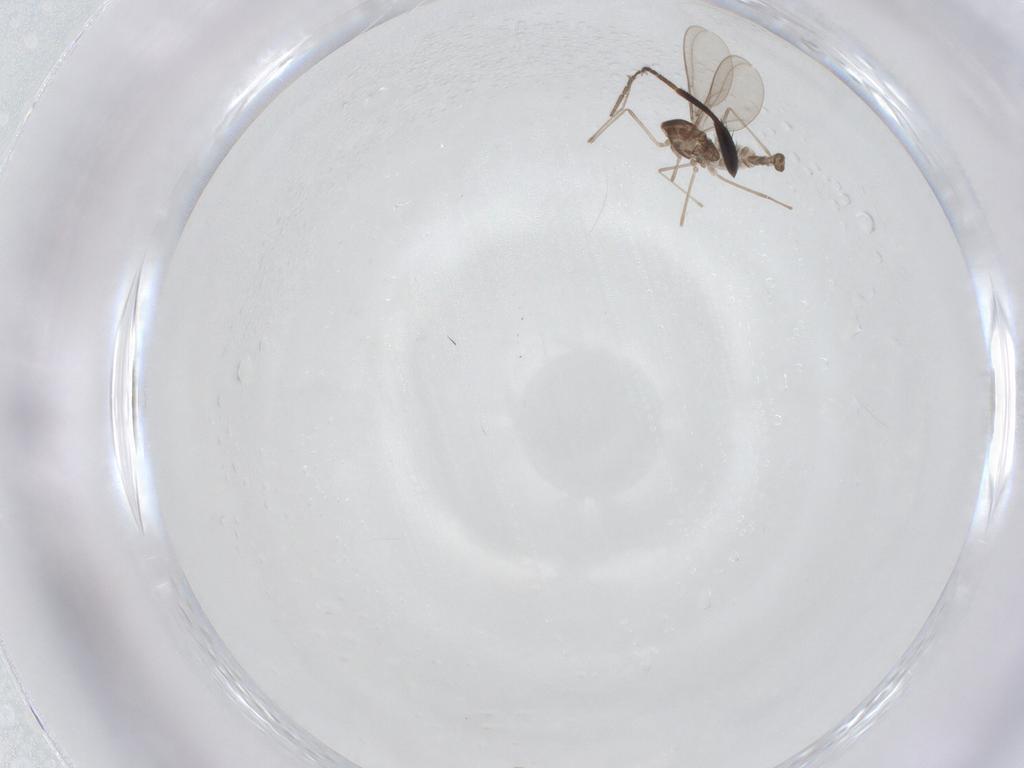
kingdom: Animalia
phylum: Arthropoda
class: Insecta
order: Diptera
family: Cecidomyiidae
